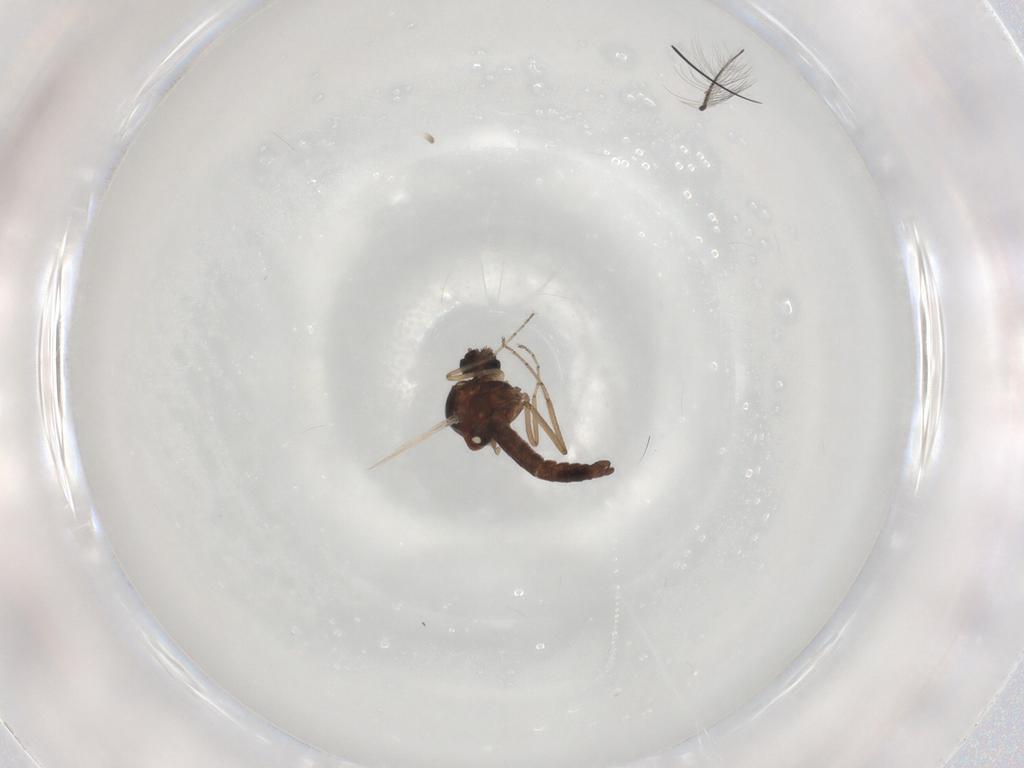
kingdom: Animalia
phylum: Arthropoda
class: Insecta
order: Diptera
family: Ceratopogonidae
